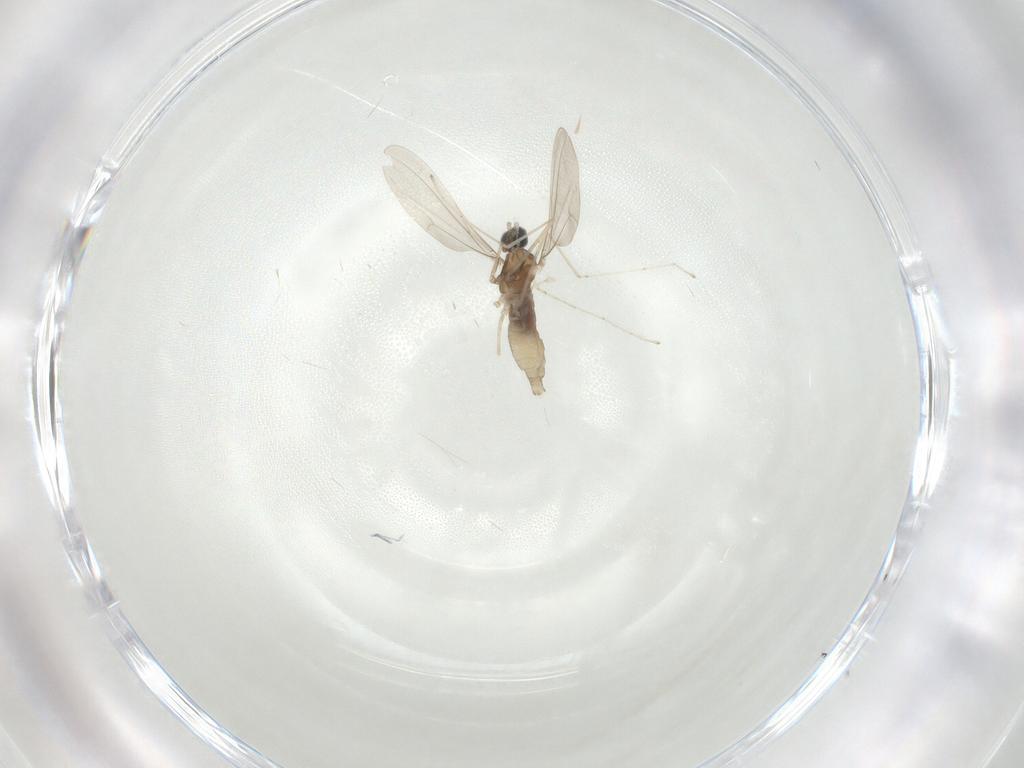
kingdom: Animalia
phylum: Arthropoda
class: Insecta
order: Diptera
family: Cecidomyiidae
